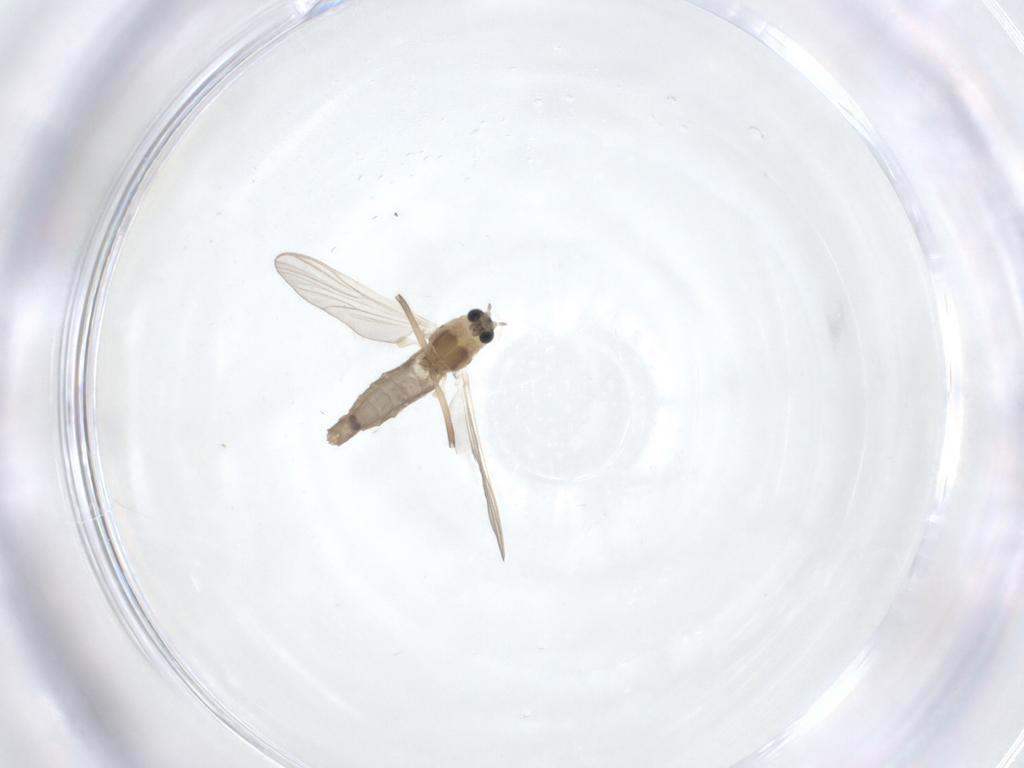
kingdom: Animalia
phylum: Arthropoda
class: Insecta
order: Diptera
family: Chironomidae
